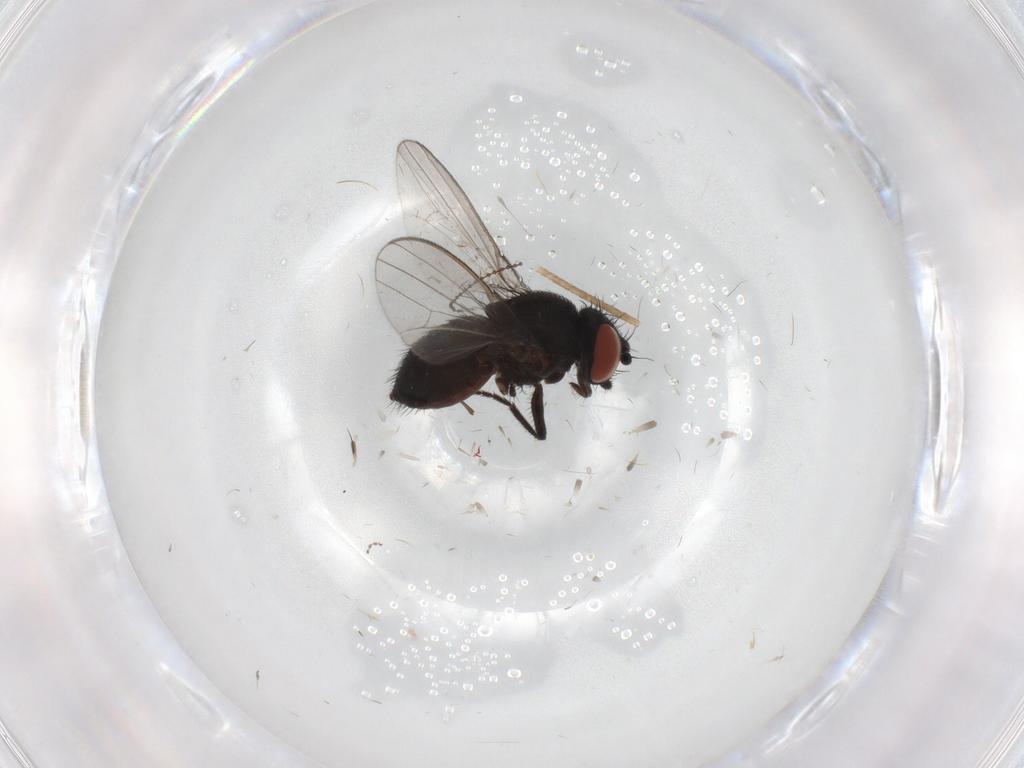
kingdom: Animalia
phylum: Arthropoda
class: Insecta
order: Diptera
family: Milichiidae
